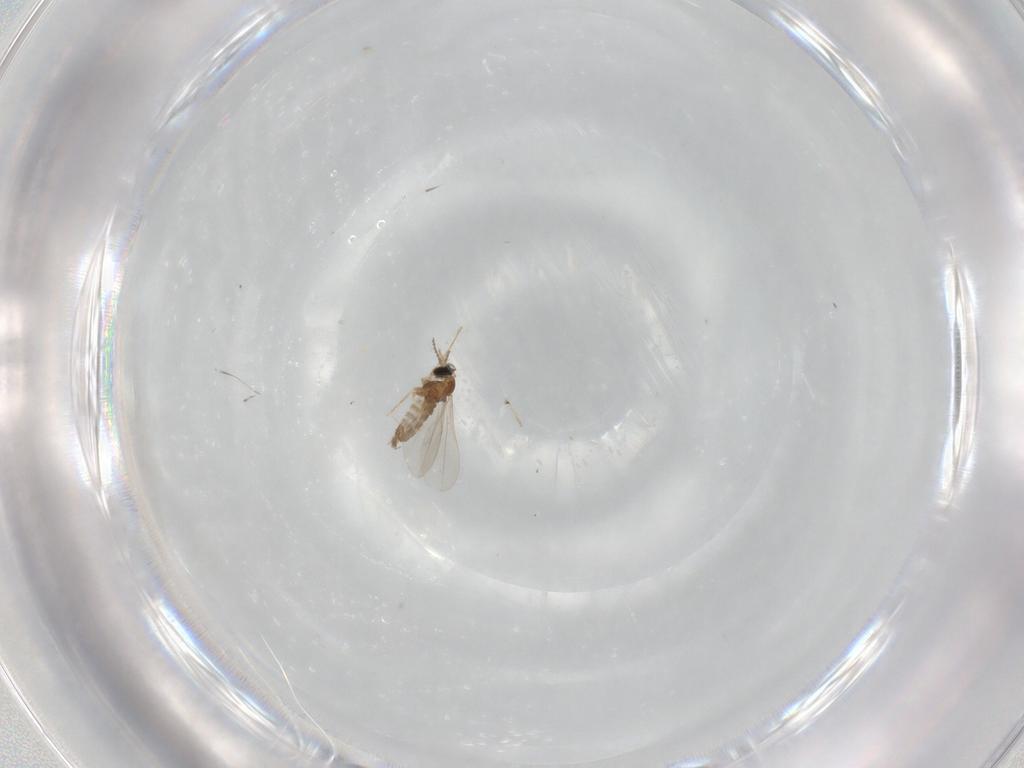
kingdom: Animalia
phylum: Arthropoda
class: Insecta
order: Diptera
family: Cecidomyiidae
